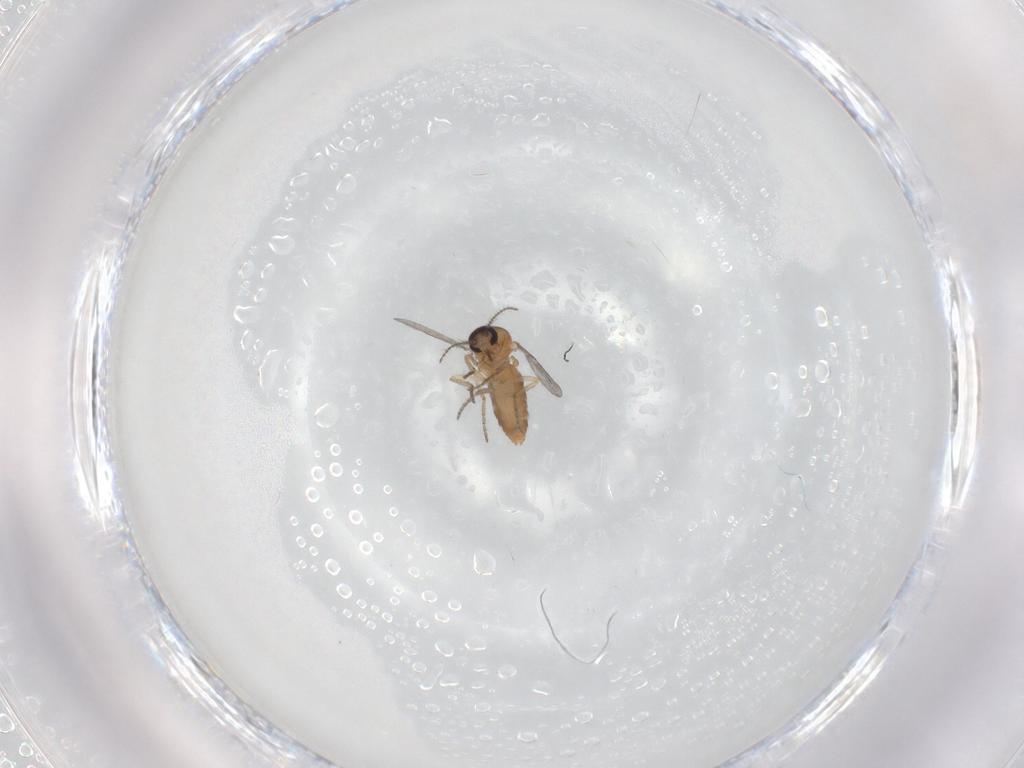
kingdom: Animalia
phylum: Arthropoda
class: Insecta
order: Diptera
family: Ceratopogonidae
